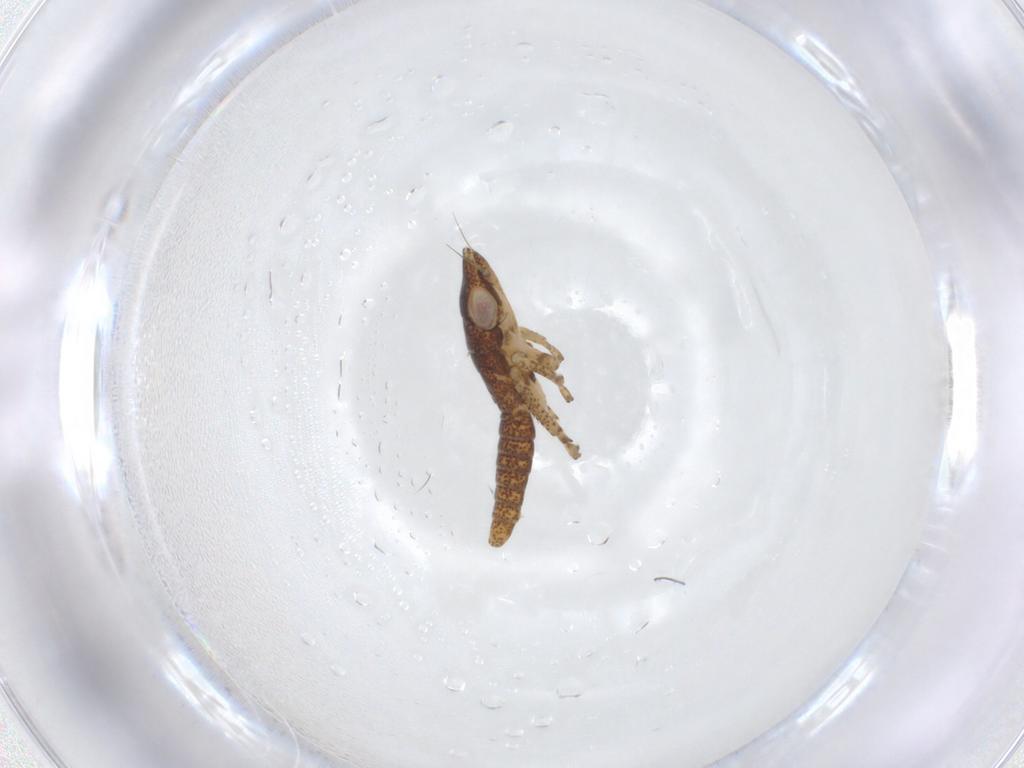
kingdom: Animalia
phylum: Arthropoda
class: Insecta
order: Hemiptera
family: Cicadellidae
